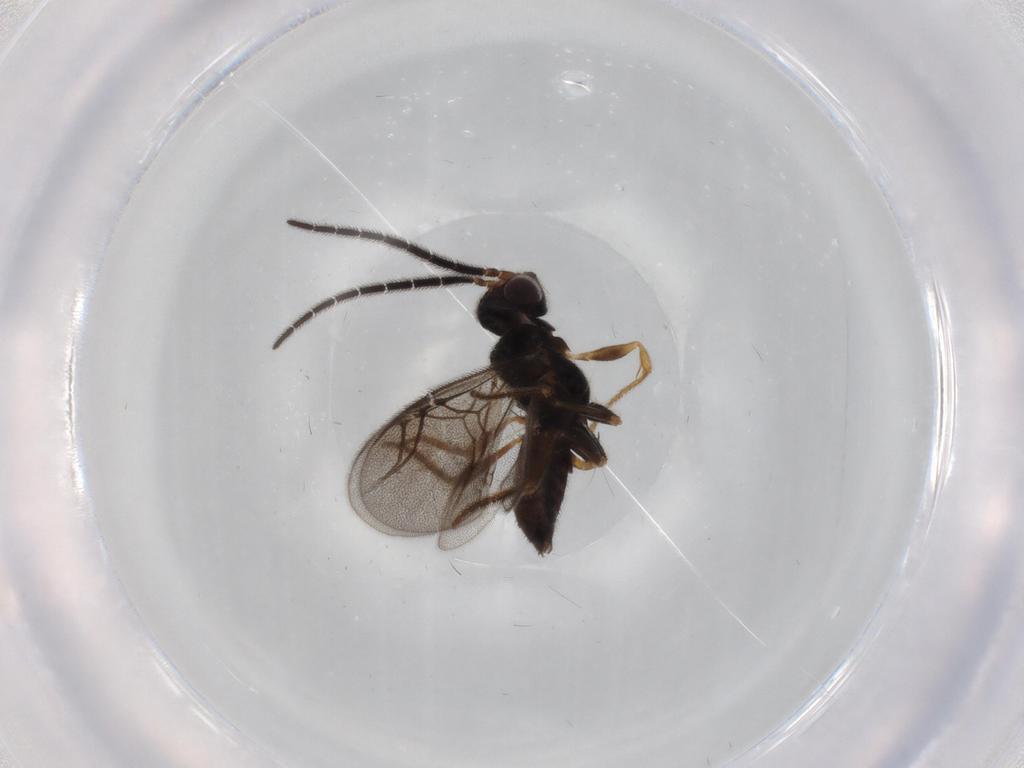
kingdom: Animalia
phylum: Arthropoda
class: Insecta
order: Hymenoptera
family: Dryinidae
